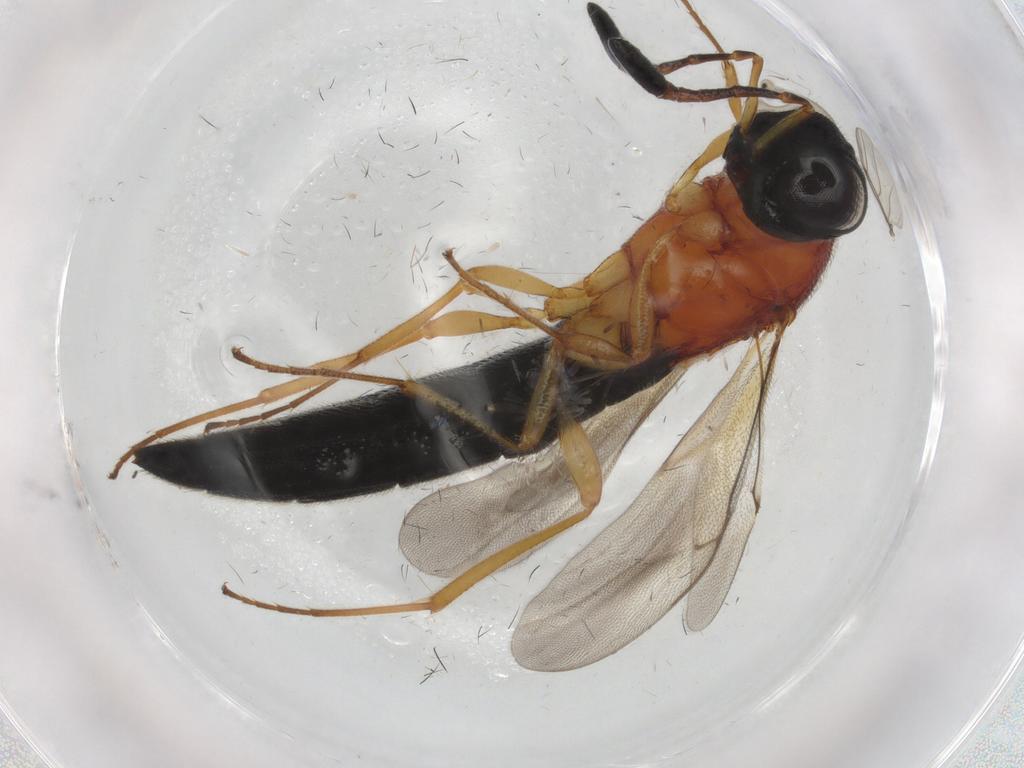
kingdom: Animalia
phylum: Arthropoda
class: Insecta
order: Hymenoptera
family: Scelionidae
